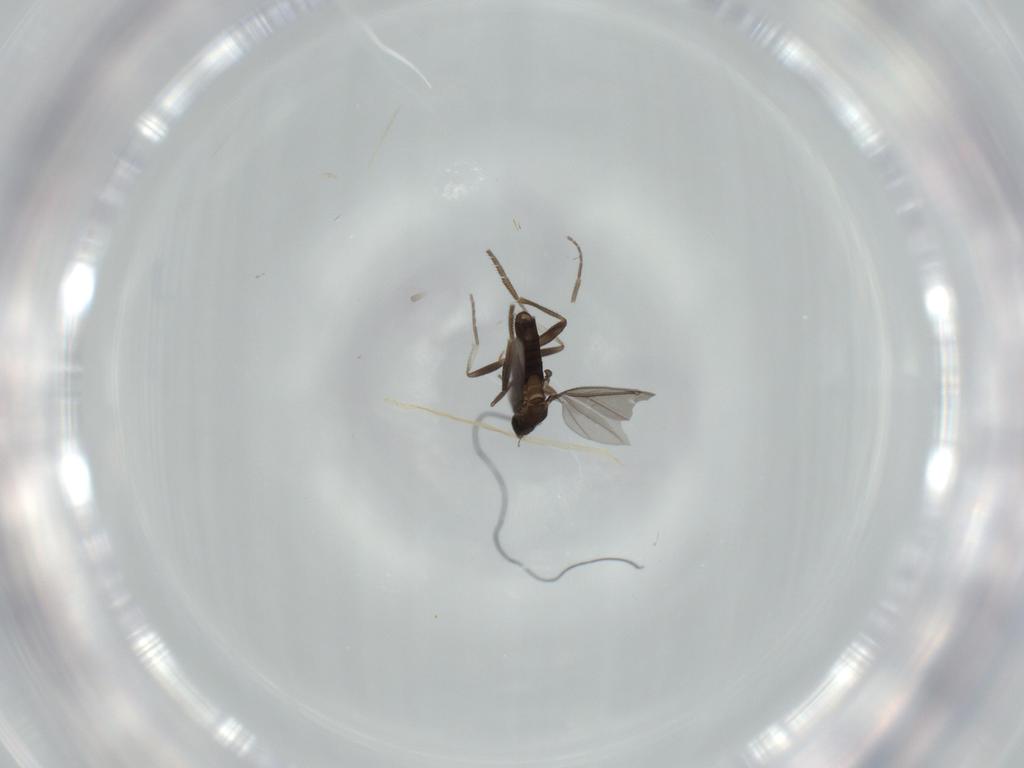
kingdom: Animalia
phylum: Arthropoda
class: Insecta
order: Diptera
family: Phoridae
